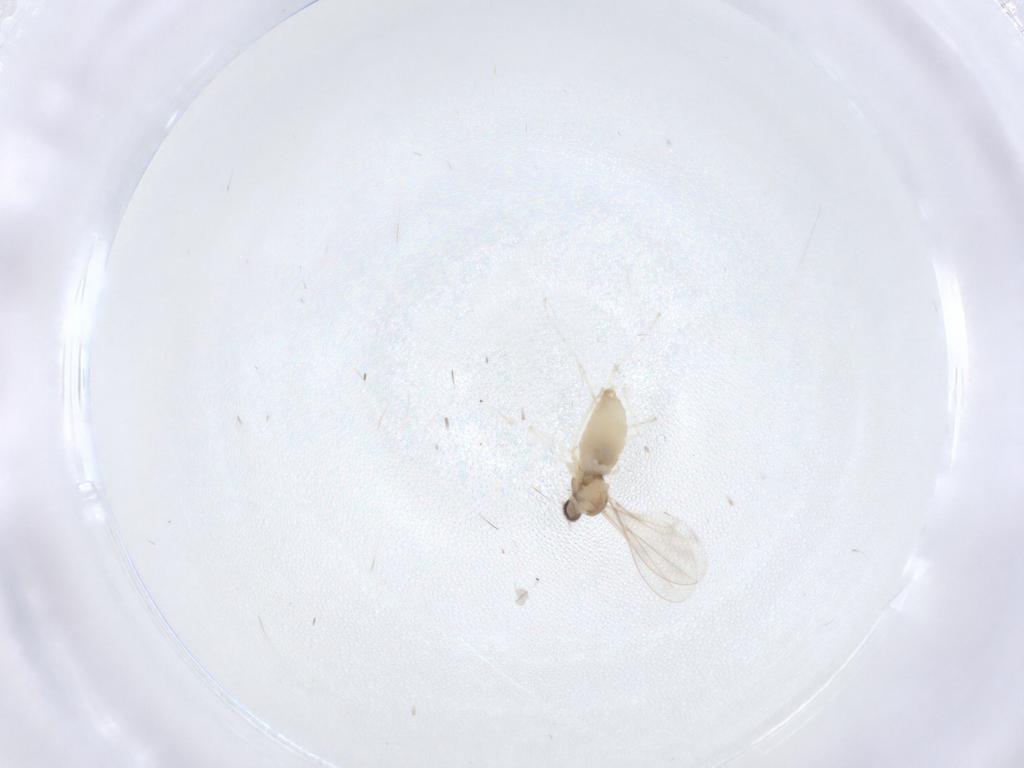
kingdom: Animalia
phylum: Arthropoda
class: Insecta
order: Diptera
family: Cecidomyiidae
